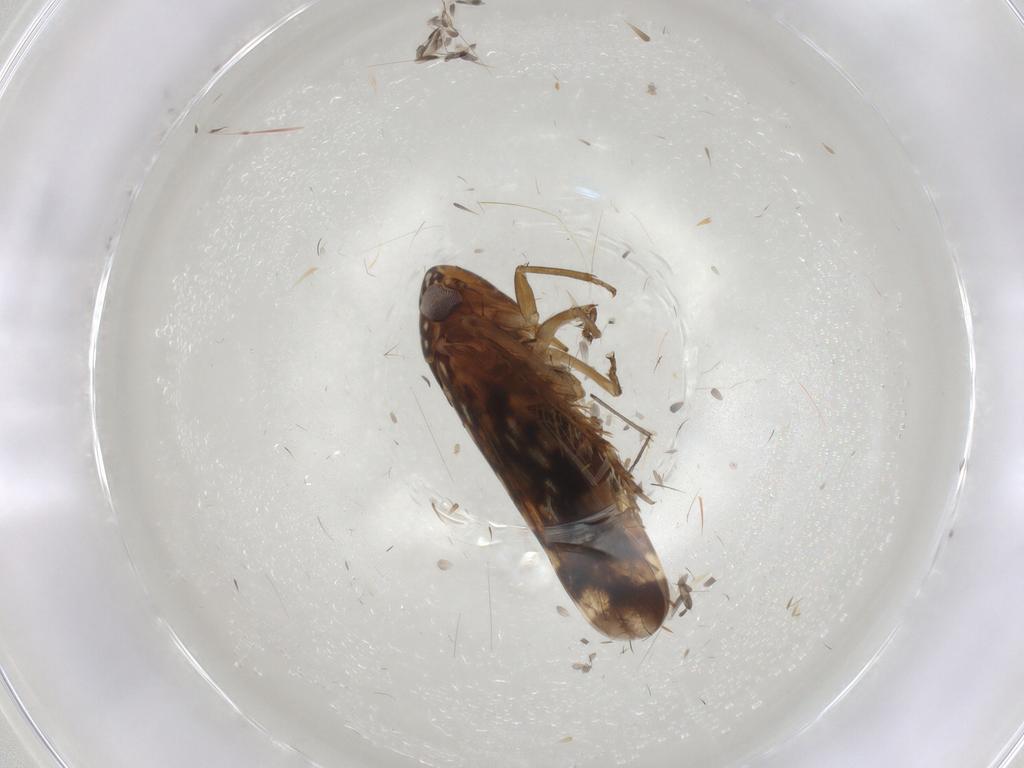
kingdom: Animalia
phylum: Arthropoda
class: Insecta
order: Hemiptera
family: Cicadellidae
